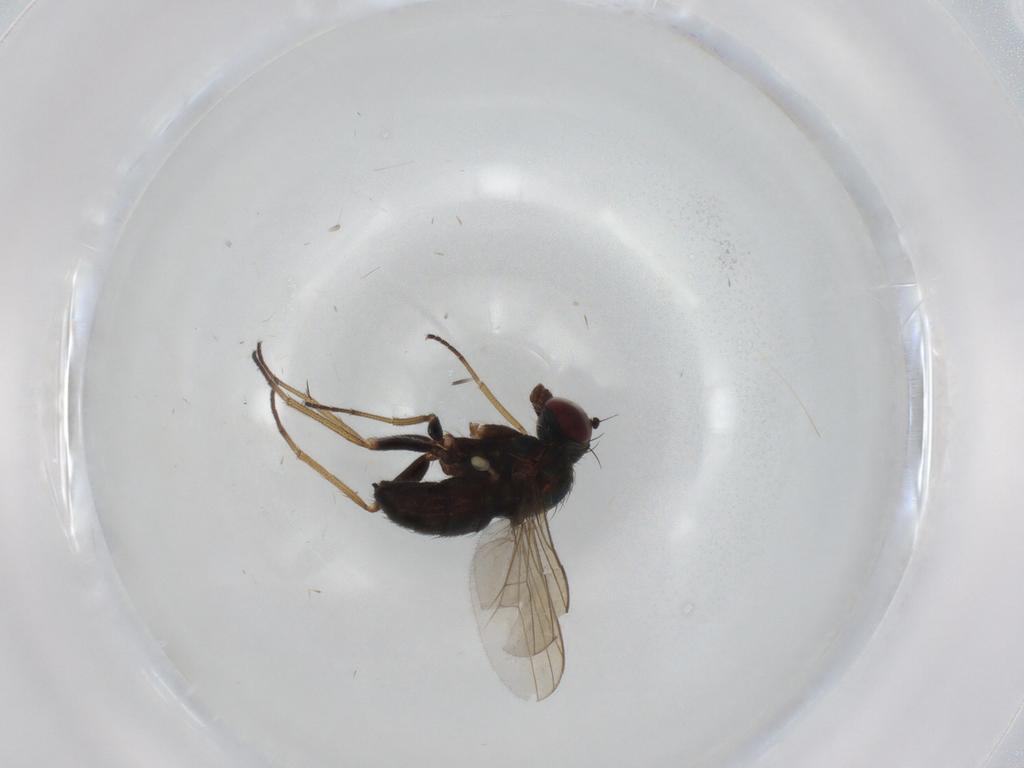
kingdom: Animalia
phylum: Arthropoda
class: Insecta
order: Diptera
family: Dolichopodidae
